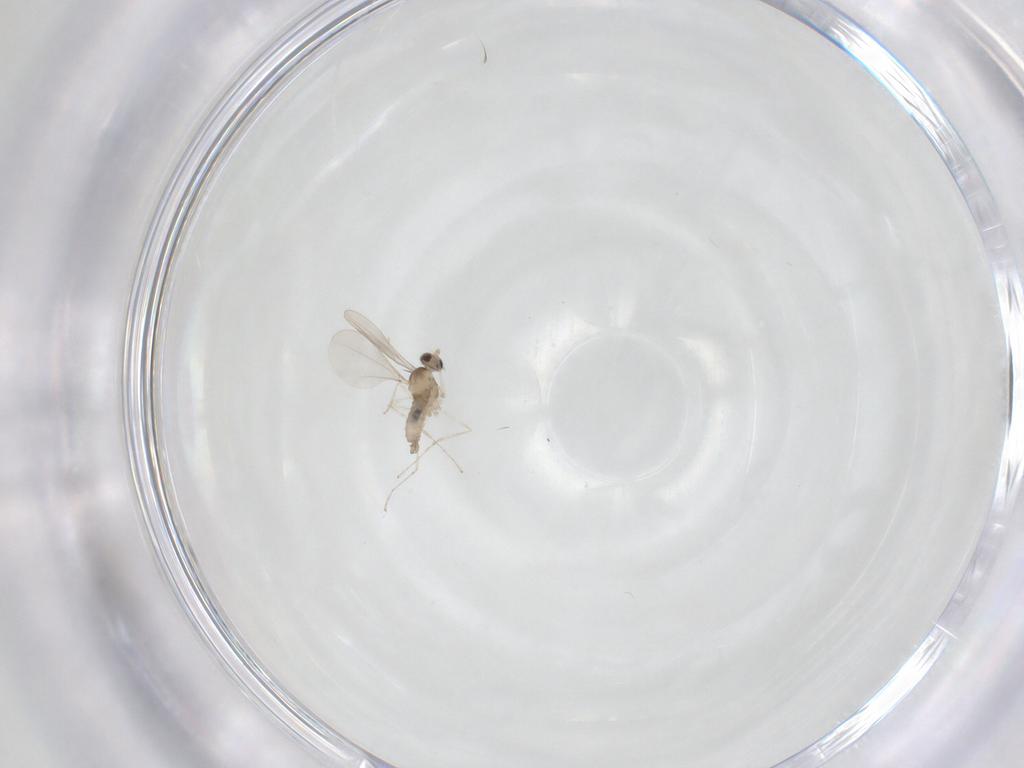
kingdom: Animalia
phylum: Arthropoda
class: Insecta
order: Diptera
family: Cecidomyiidae
